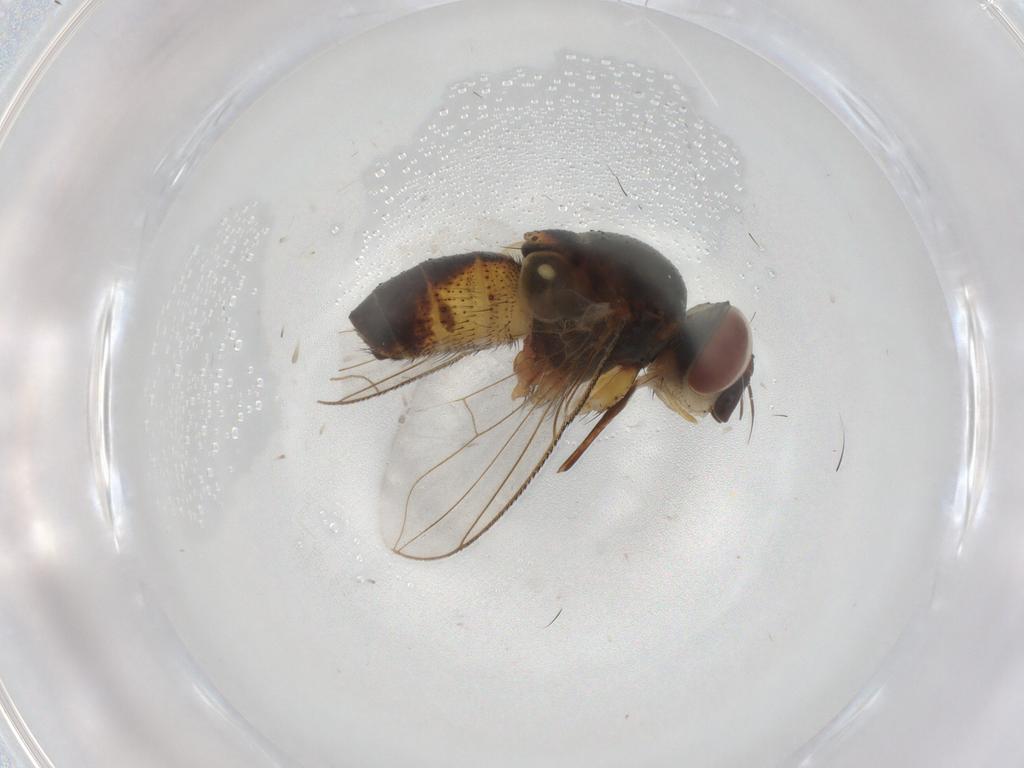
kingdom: Animalia
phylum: Arthropoda
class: Insecta
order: Diptera
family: Tachinidae
